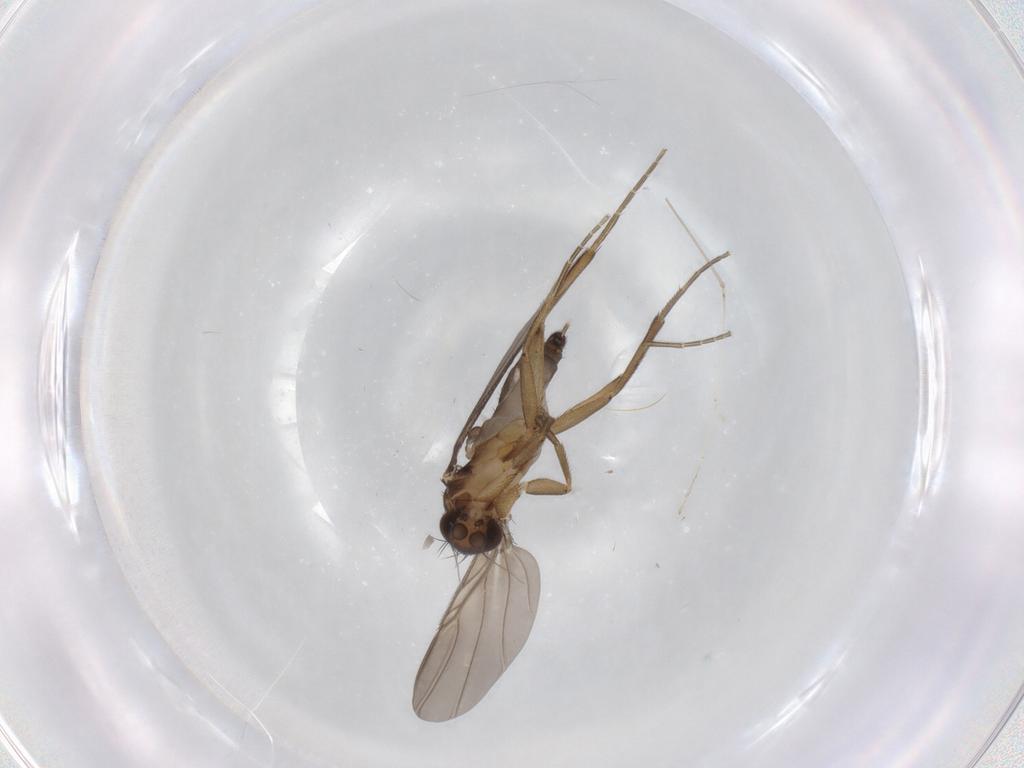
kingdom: Animalia
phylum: Arthropoda
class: Insecta
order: Diptera
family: Cecidomyiidae
